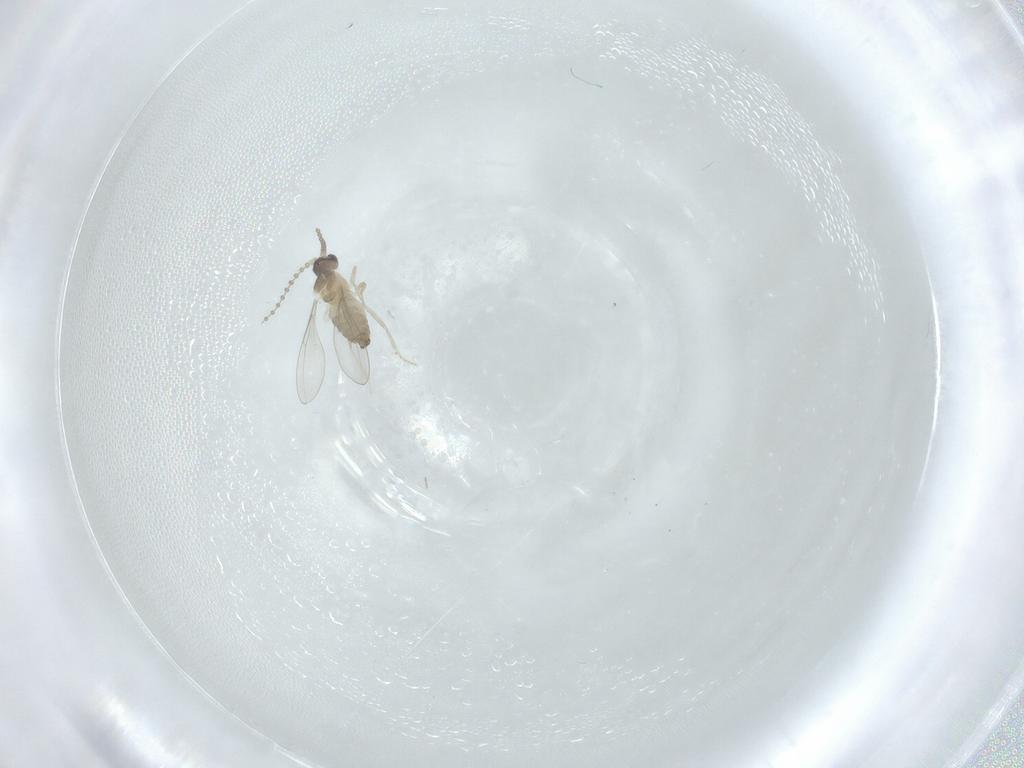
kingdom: Animalia
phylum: Arthropoda
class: Insecta
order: Diptera
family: Cecidomyiidae
